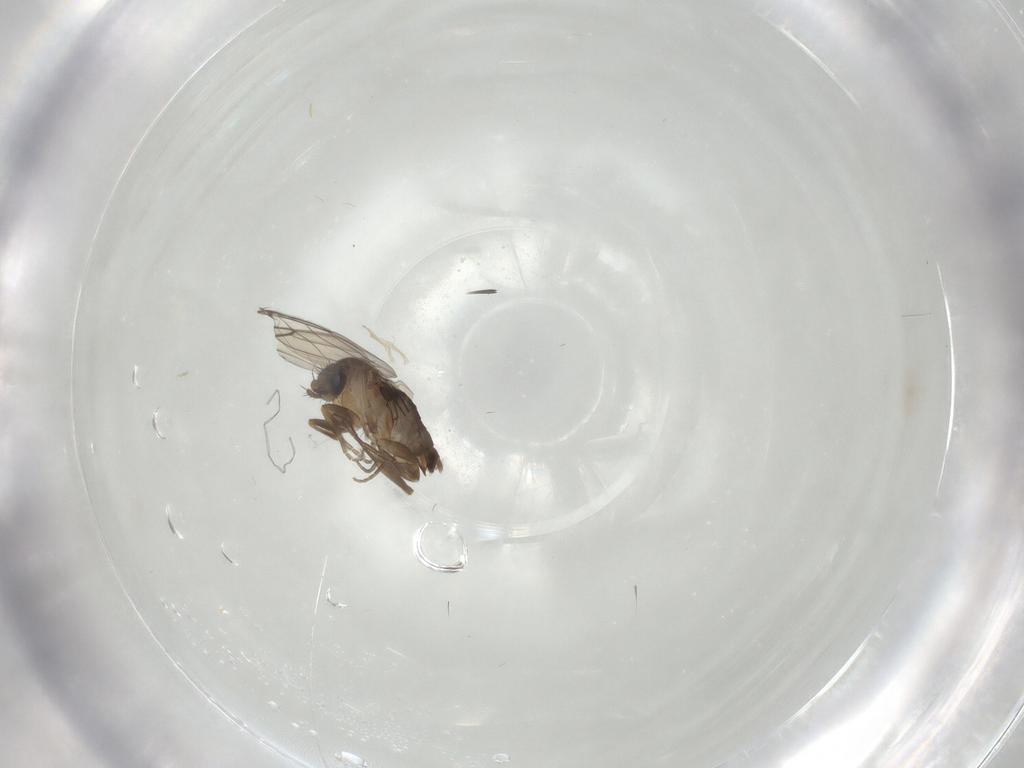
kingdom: Animalia
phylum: Arthropoda
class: Insecta
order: Diptera
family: Phoridae
